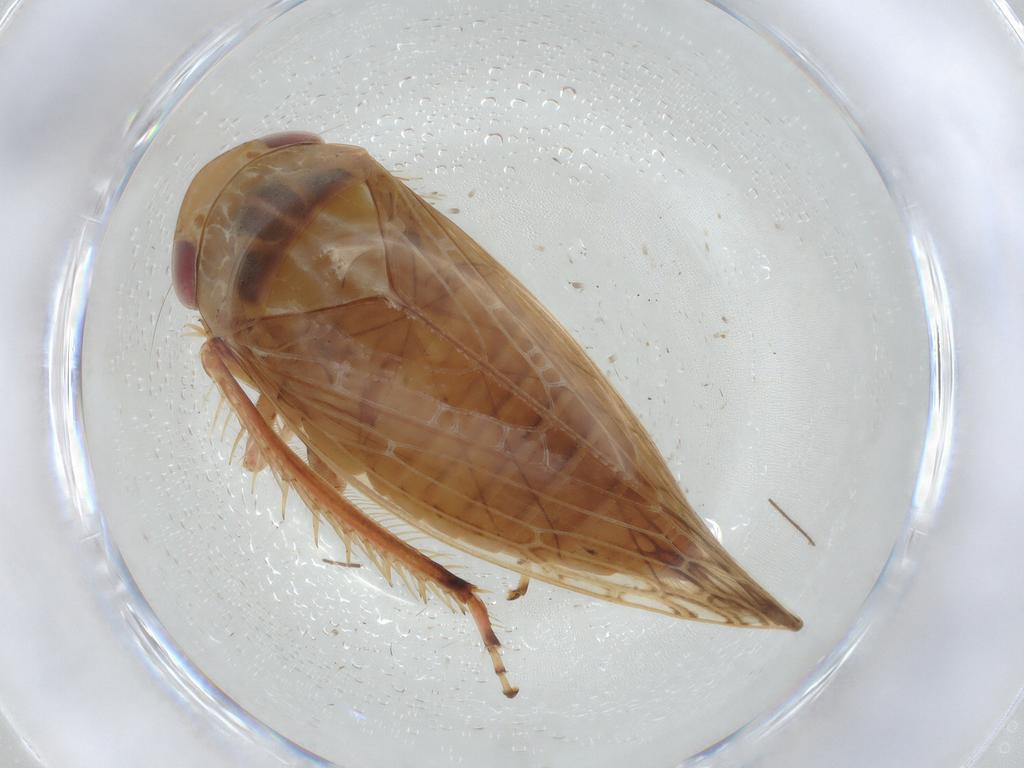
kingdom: Animalia
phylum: Arthropoda
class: Insecta
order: Hemiptera
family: Cicadellidae
